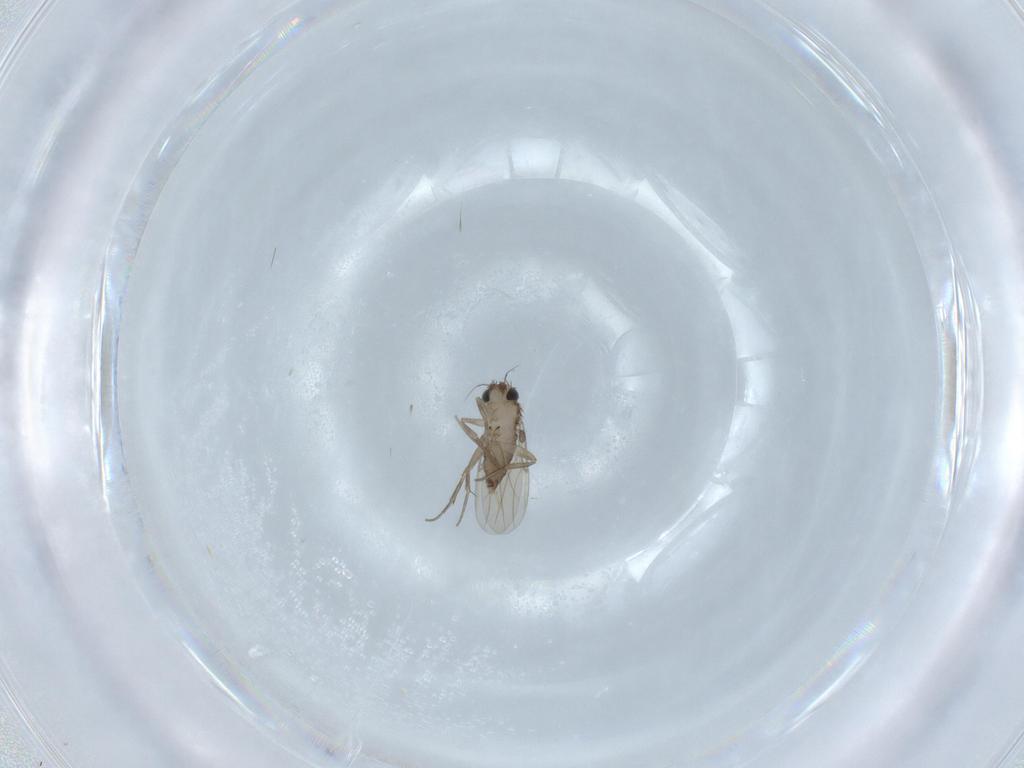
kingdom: Animalia
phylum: Arthropoda
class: Insecta
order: Diptera
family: Phoridae
